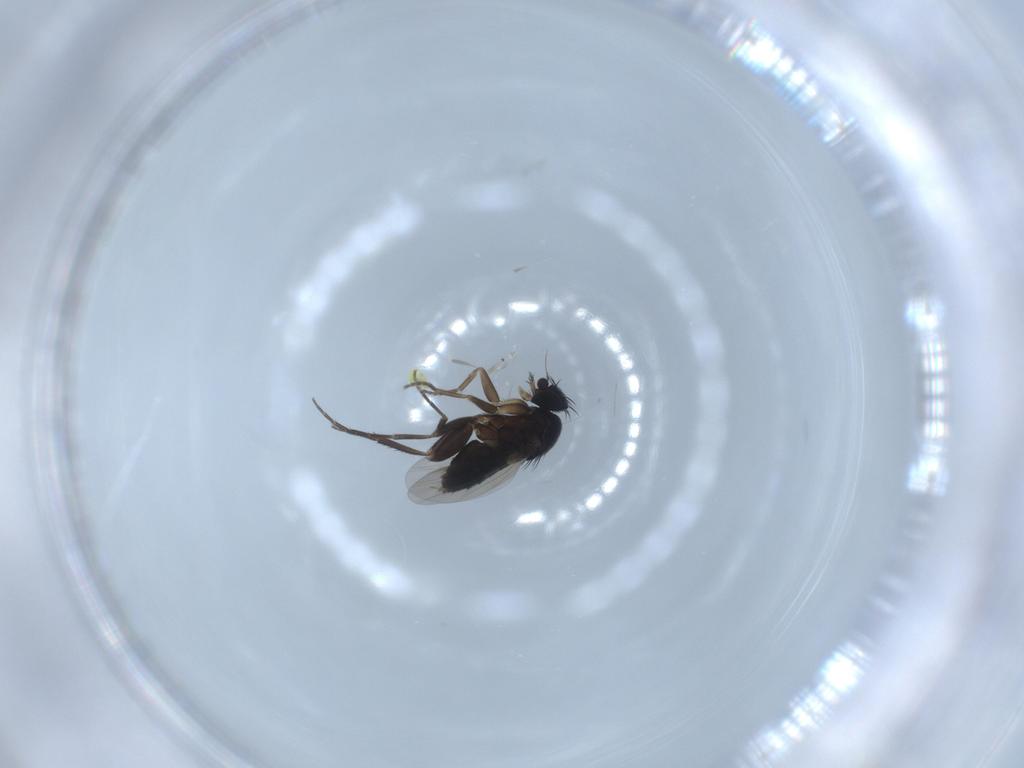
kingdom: Animalia
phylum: Arthropoda
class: Insecta
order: Diptera
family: Phoridae
